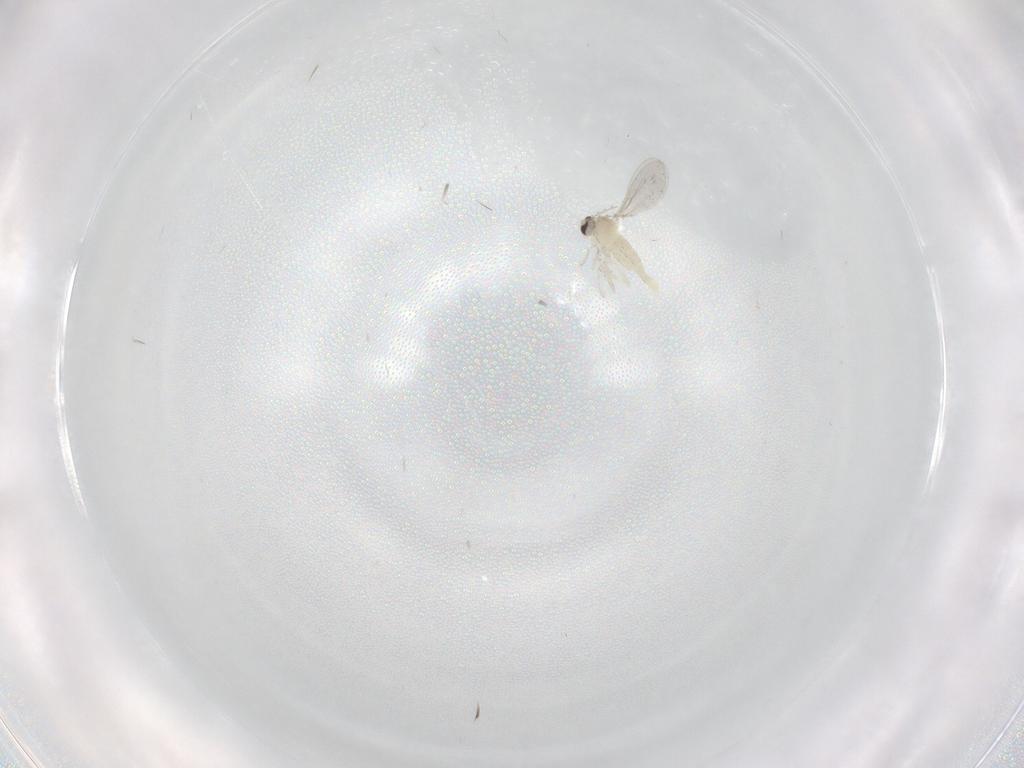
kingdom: Animalia
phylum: Arthropoda
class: Insecta
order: Diptera
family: Cecidomyiidae
